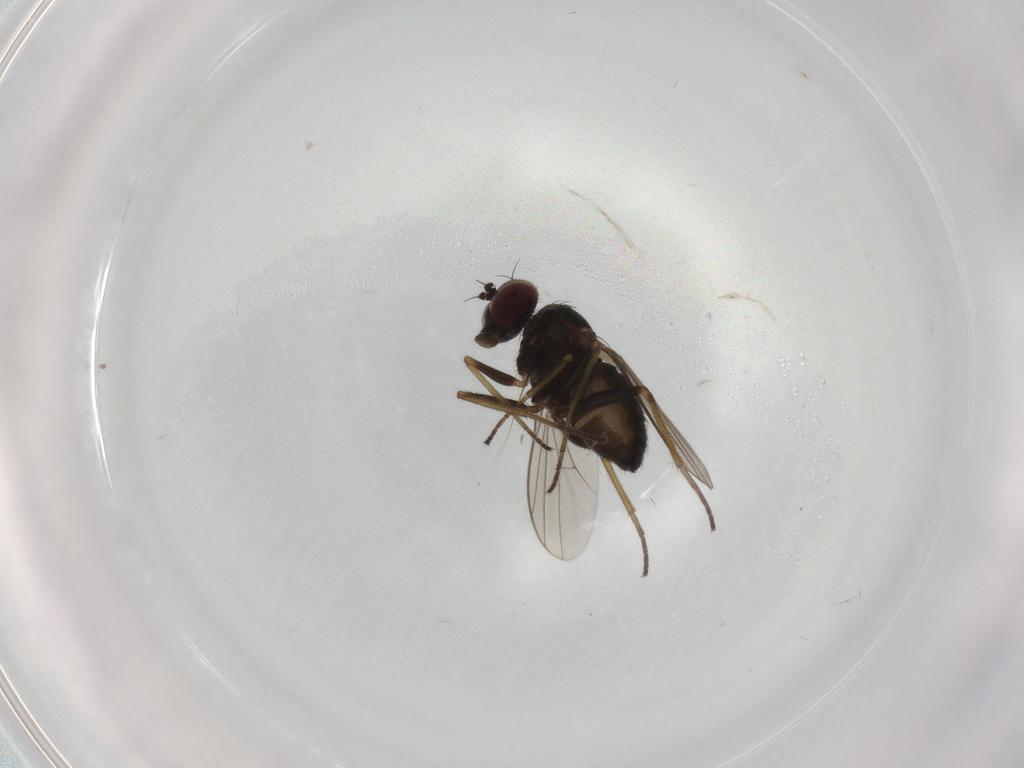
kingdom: Animalia
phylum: Arthropoda
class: Insecta
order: Diptera
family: Dolichopodidae
